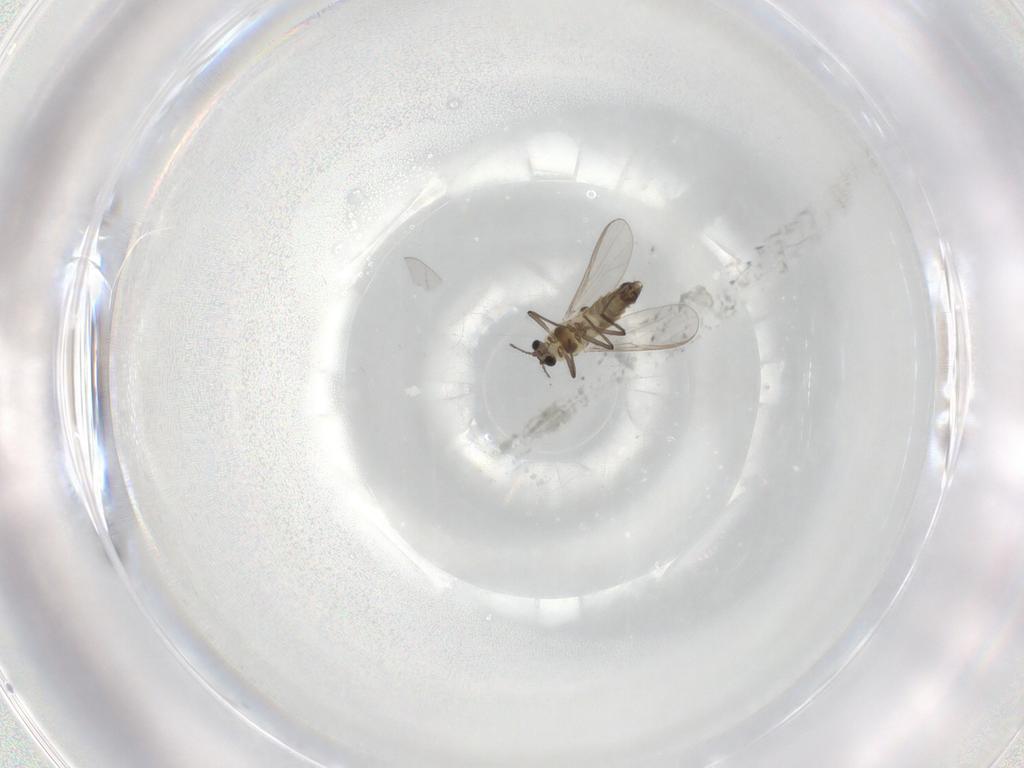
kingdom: Animalia
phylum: Arthropoda
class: Insecta
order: Diptera
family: Chironomidae
